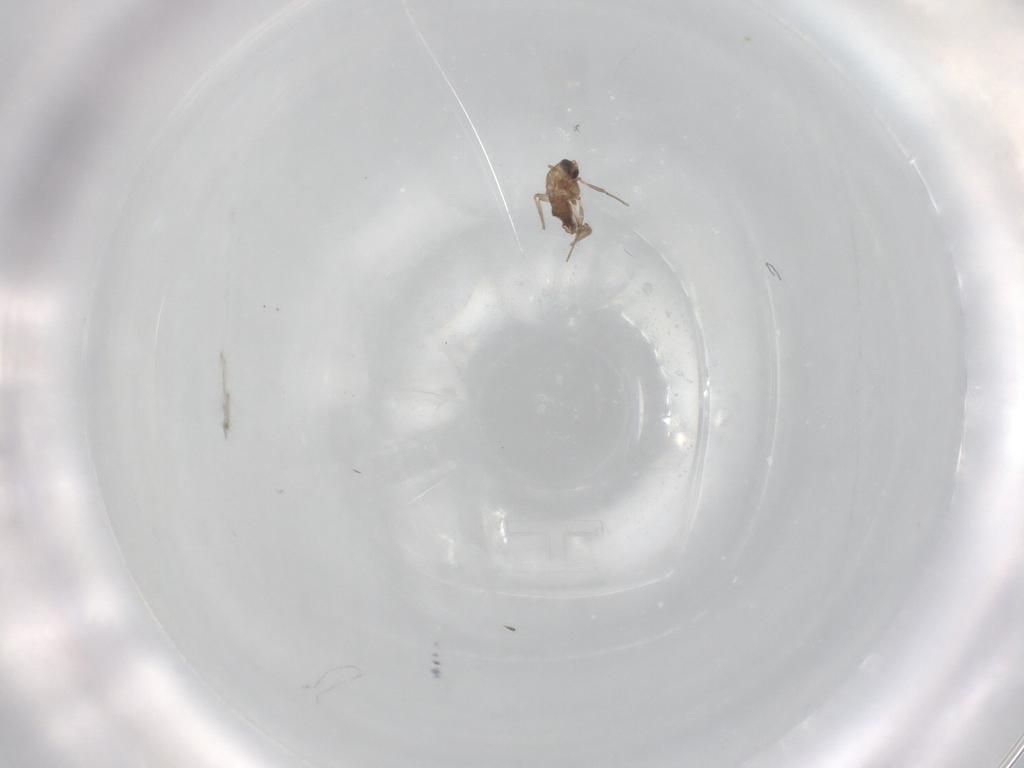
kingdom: Animalia
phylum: Arthropoda
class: Insecta
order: Diptera
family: Chironomidae
